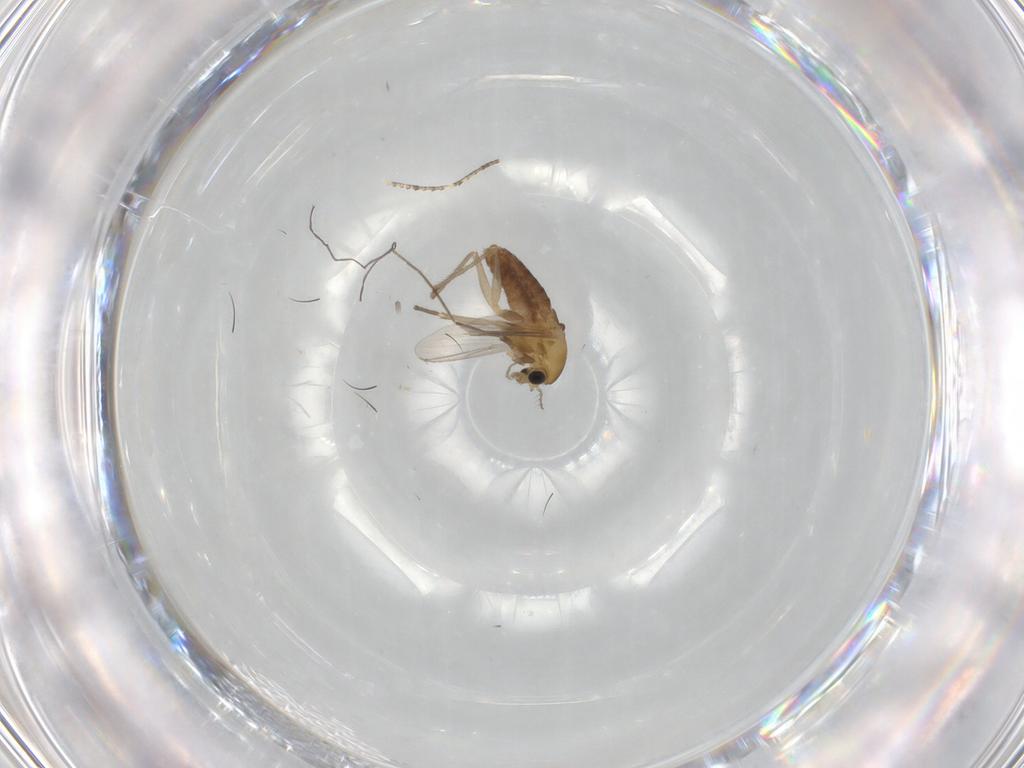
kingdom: Animalia
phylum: Arthropoda
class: Insecta
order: Diptera
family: Chironomidae
